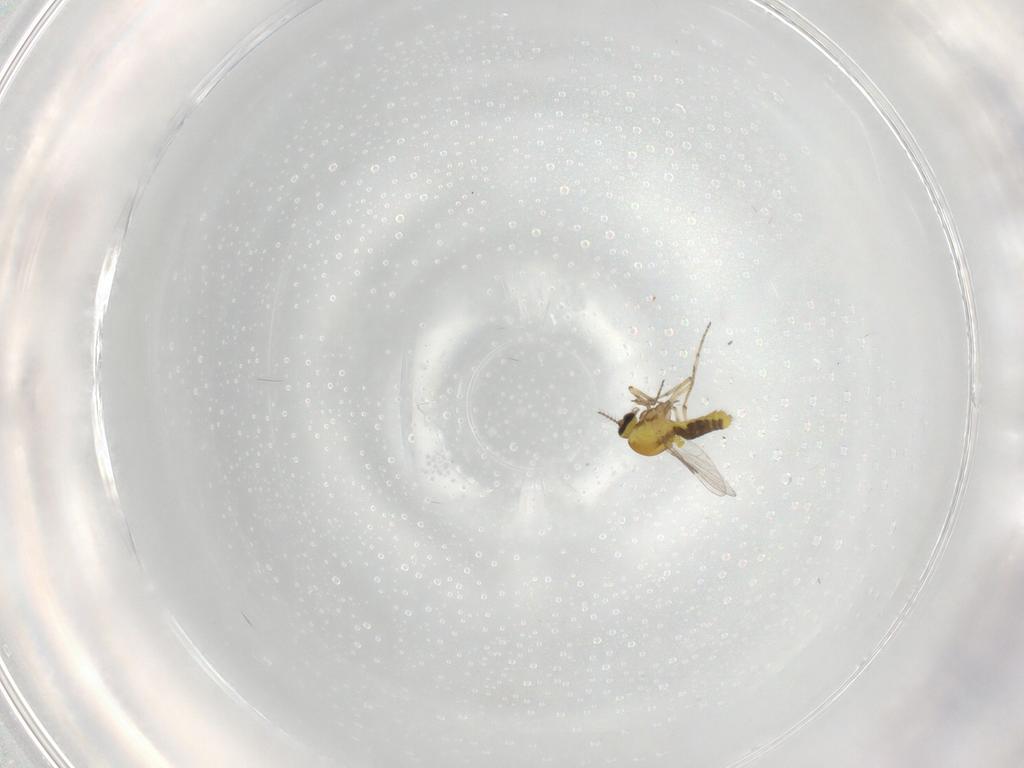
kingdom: Animalia
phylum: Arthropoda
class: Insecta
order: Diptera
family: Ceratopogonidae
